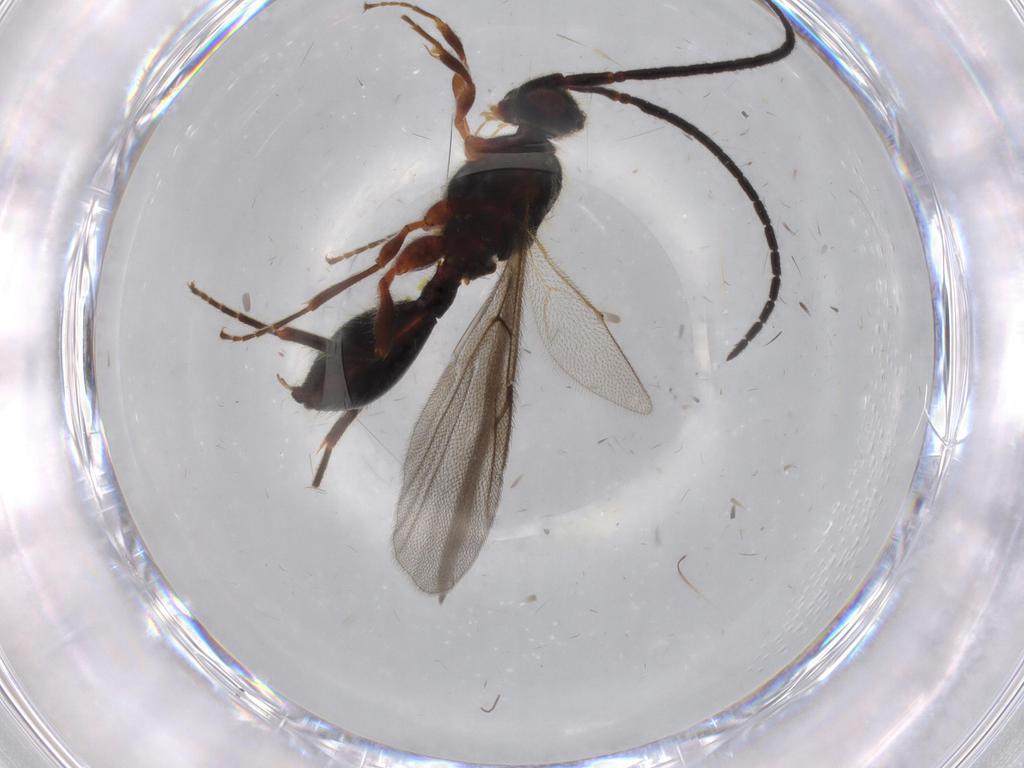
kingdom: Animalia
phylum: Arthropoda
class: Insecta
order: Hymenoptera
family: Diapriidae
